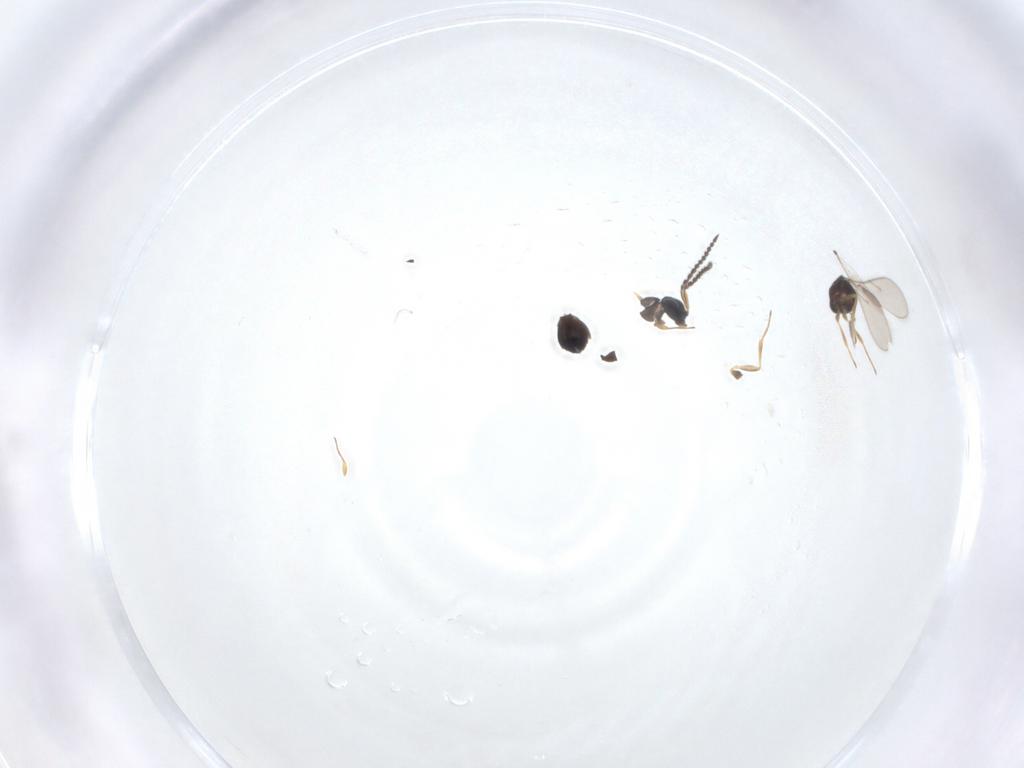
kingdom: Animalia
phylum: Arthropoda
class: Insecta
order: Hymenoptera
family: Scelionidae
